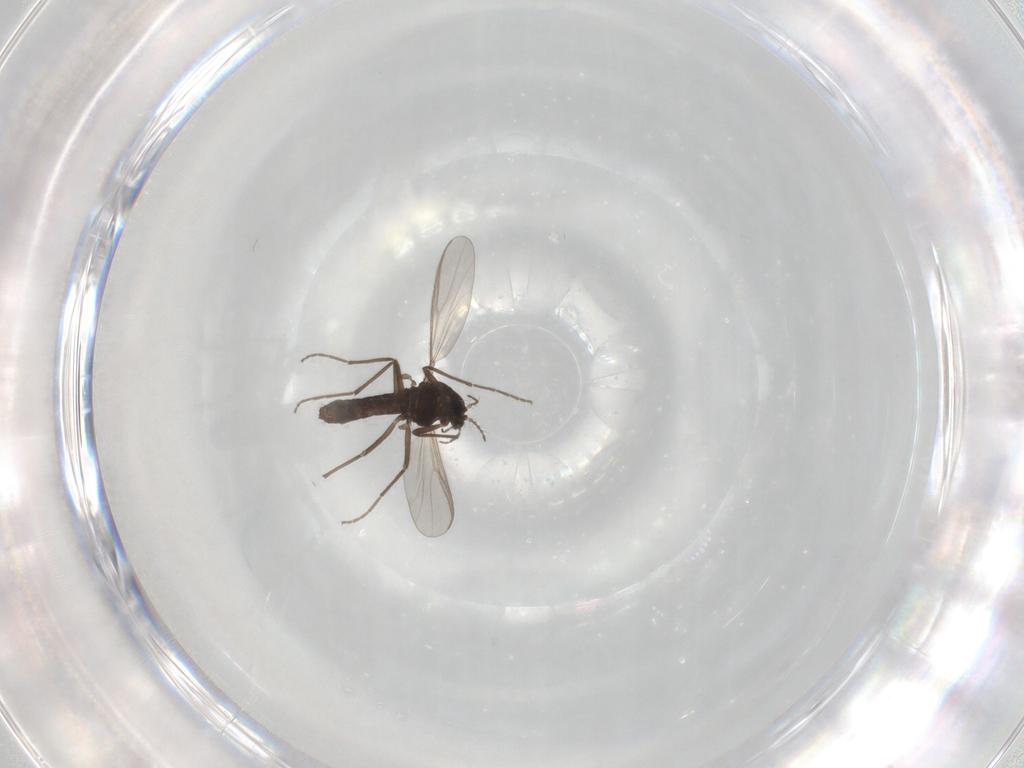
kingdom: Animalia
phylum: Arthropoda
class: Insecta
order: Diptera
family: Chironomidae
